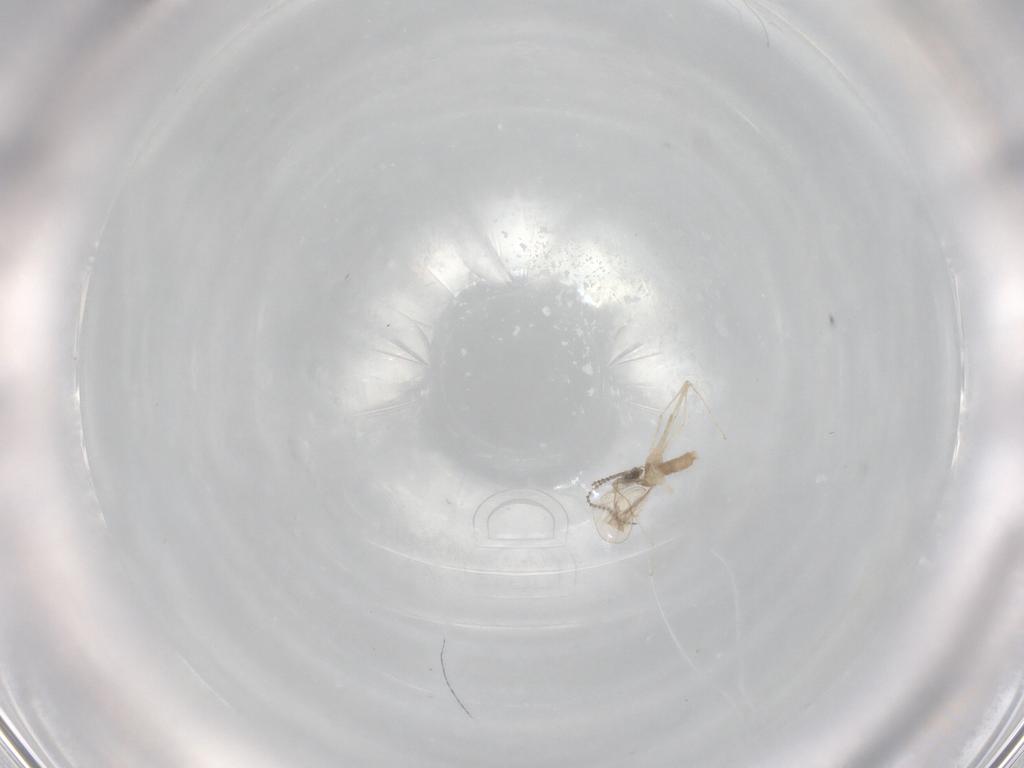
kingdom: Animalia
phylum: Arthropoda
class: Insecta
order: Diptera
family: Cecidomyiidae
